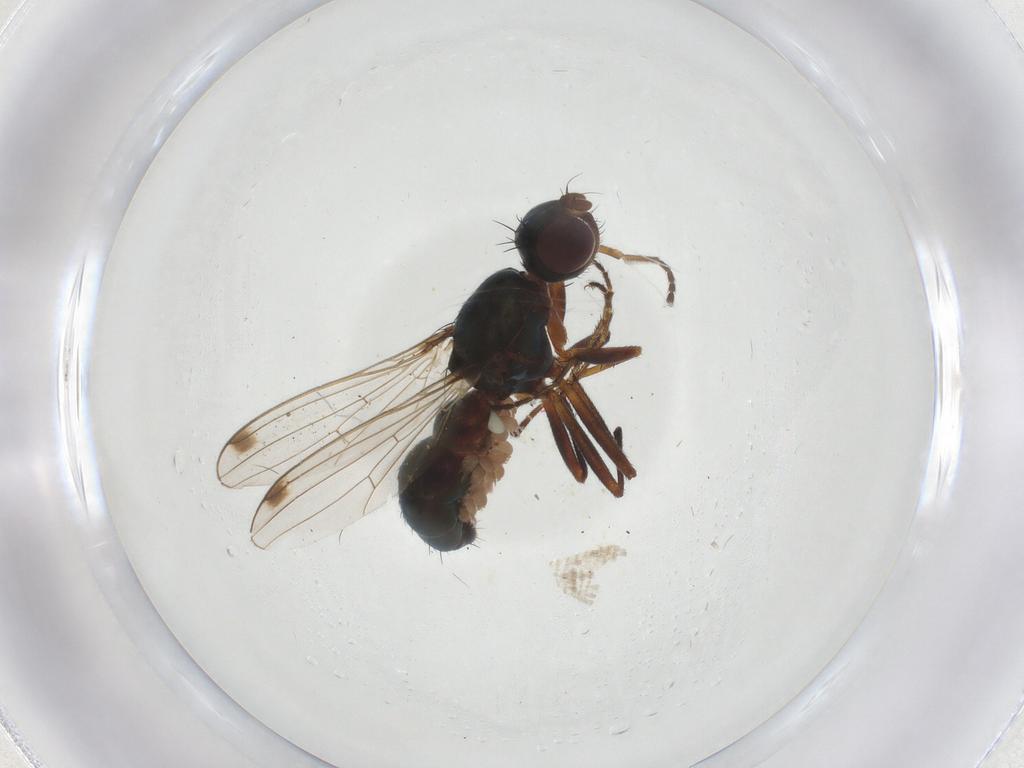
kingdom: Animalia
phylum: Arthropoda
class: Insecta
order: Diptera
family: Sepsidae
